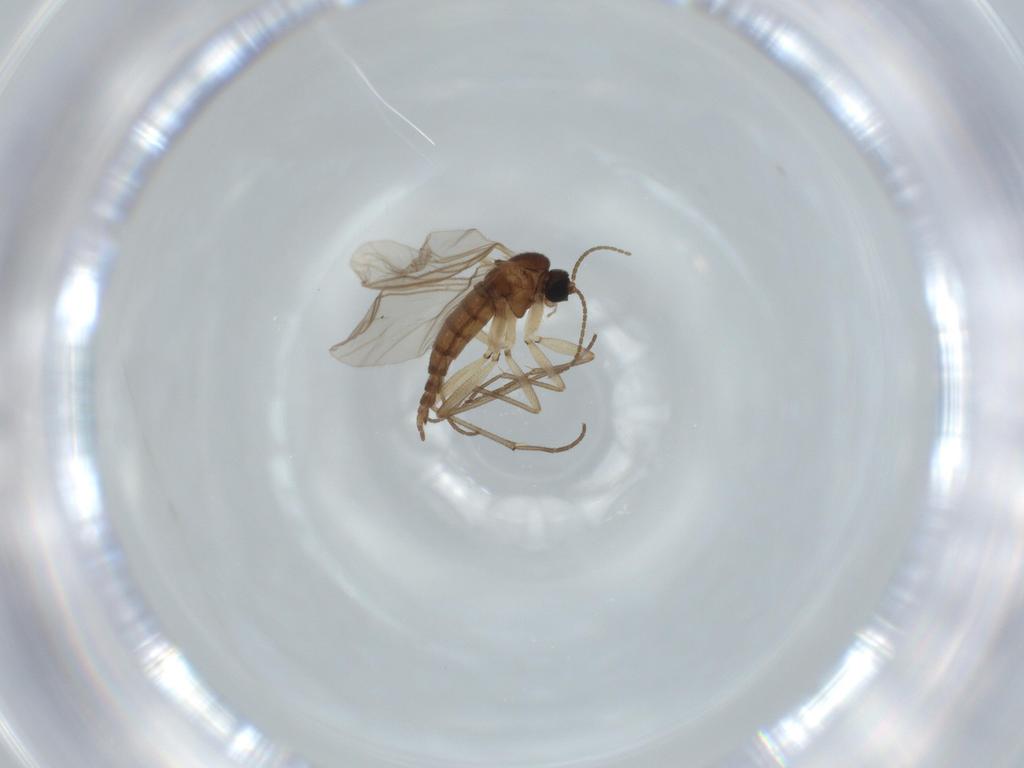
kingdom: Animalia
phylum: Arthropoda
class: Insecta
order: Diptera
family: Sciaridae
